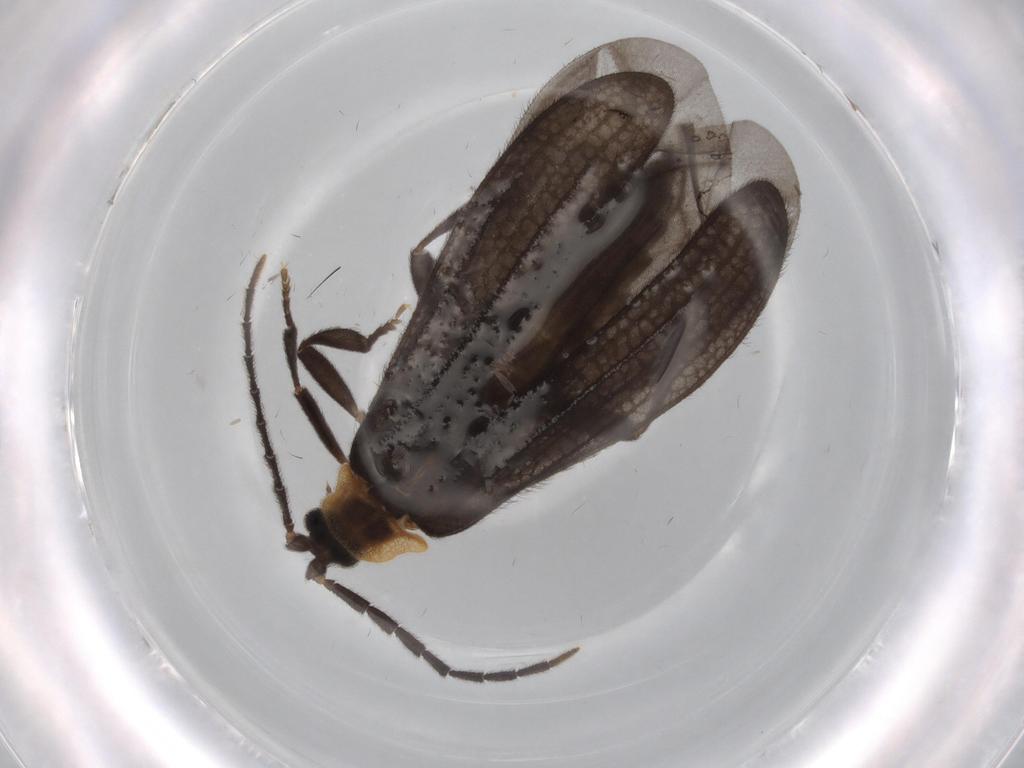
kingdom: Animalia
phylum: Arthropoda
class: Insecta
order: Coleoptera
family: Lycidae
